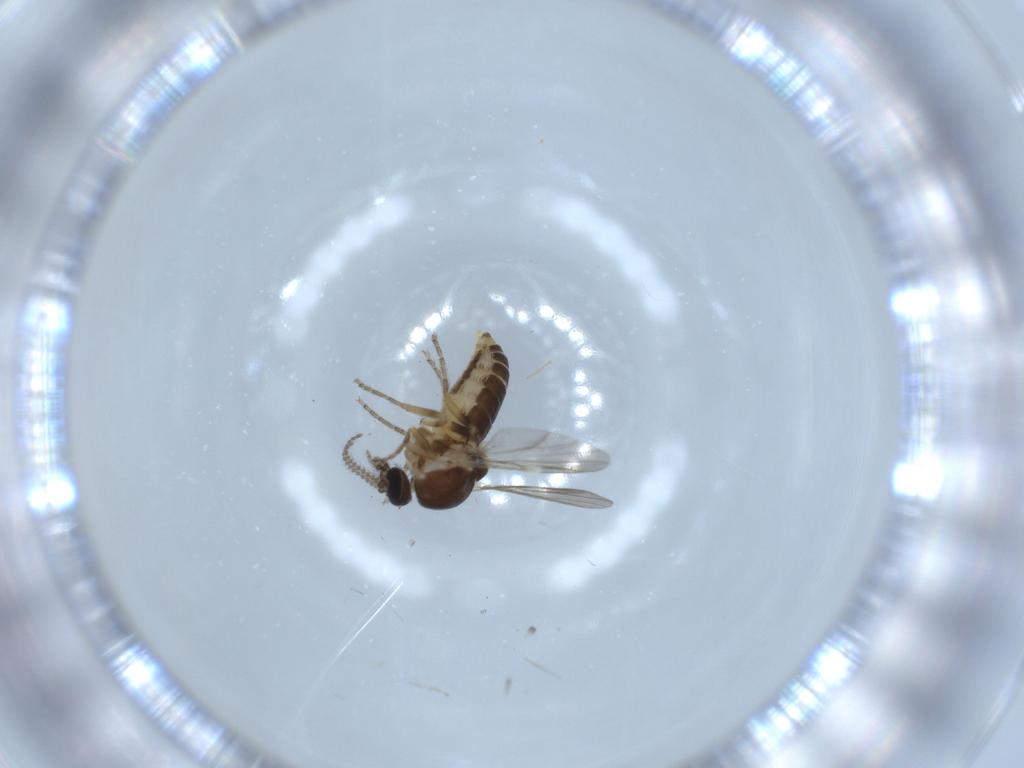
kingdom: Animalia
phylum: Arthropoda
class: Insecta
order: Diptera
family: Ceratopogonidae
